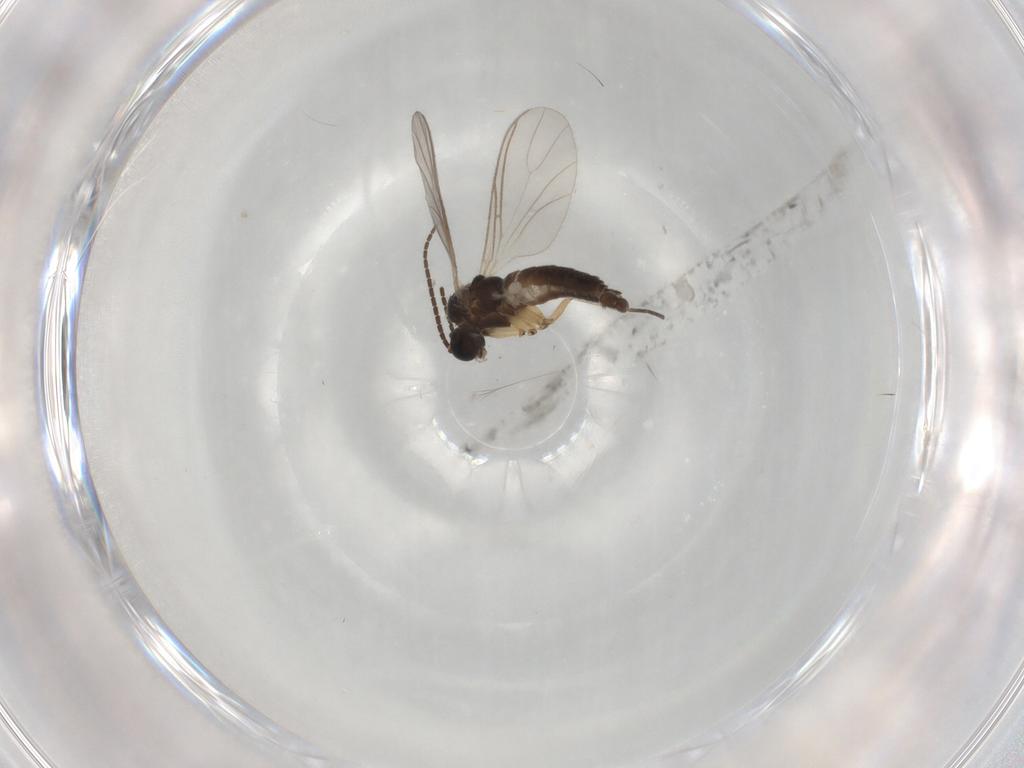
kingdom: Animalia
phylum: Arthropoda
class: Insecta
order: Diptera
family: Sciaridae
